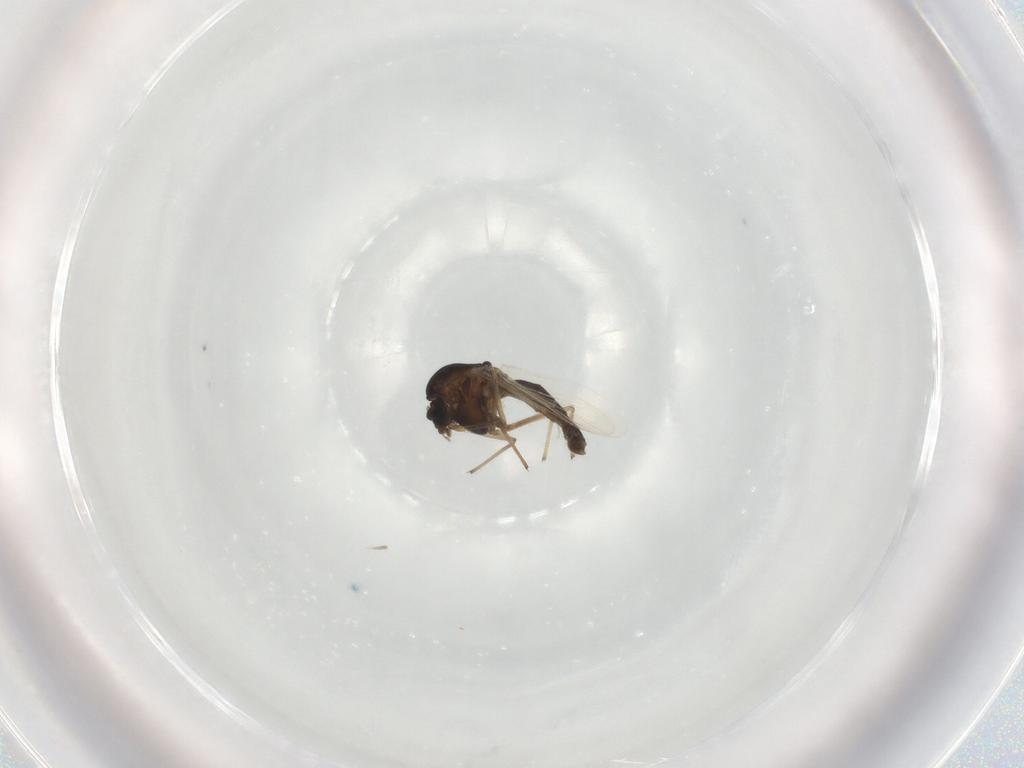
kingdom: Animalia
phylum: Arthropoda
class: Insecta
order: Diptera
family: Chironomidae
